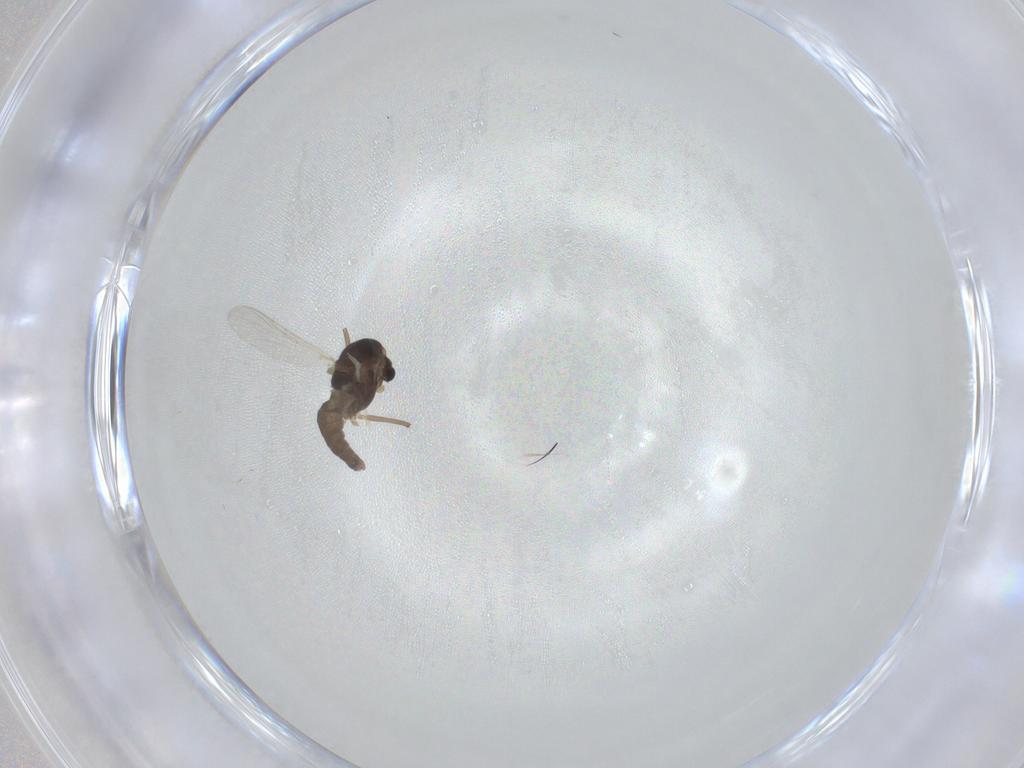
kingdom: Animalia
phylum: Arthropoda
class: Insecta
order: Diptera
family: Chironomidae
